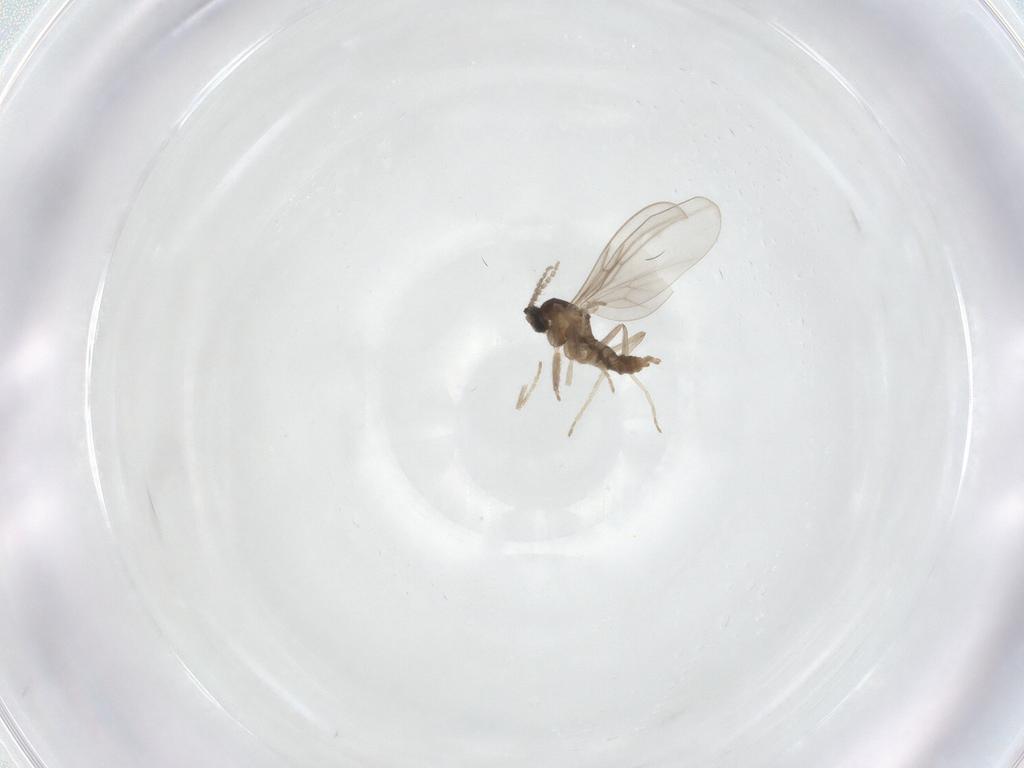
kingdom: Animalia
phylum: Arthropoda
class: Insecta
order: Diptera
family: Cecidomyiidae
